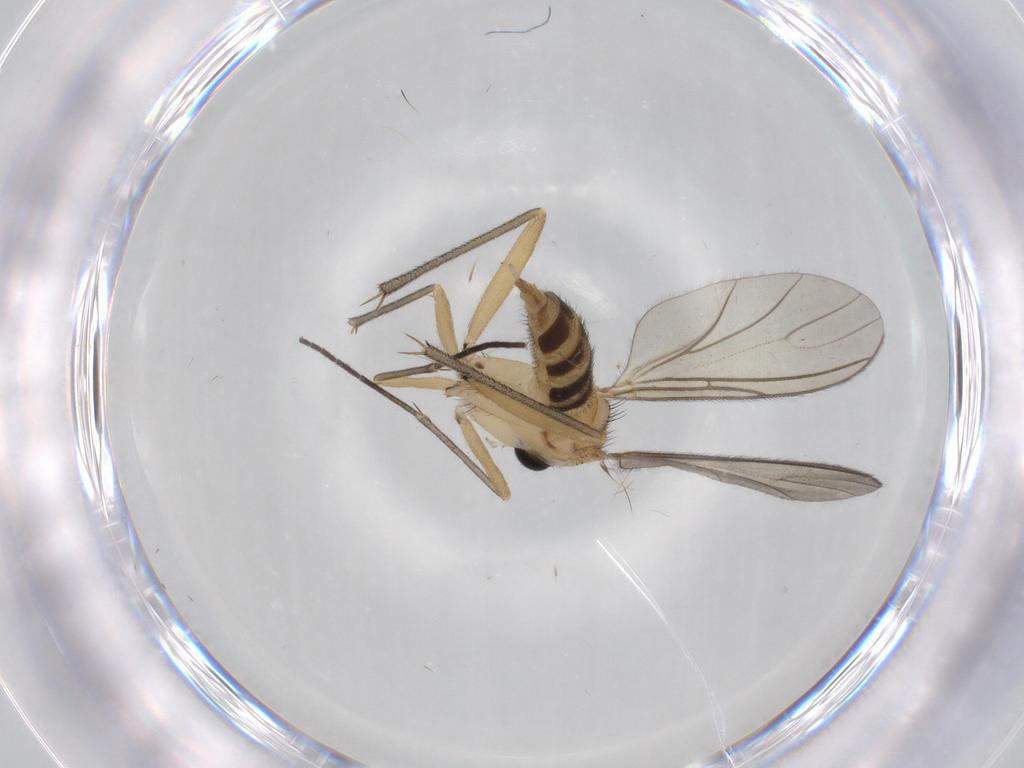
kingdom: Animalia
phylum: Arthropoda
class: Insecta
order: Diptera
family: Sciaridae
